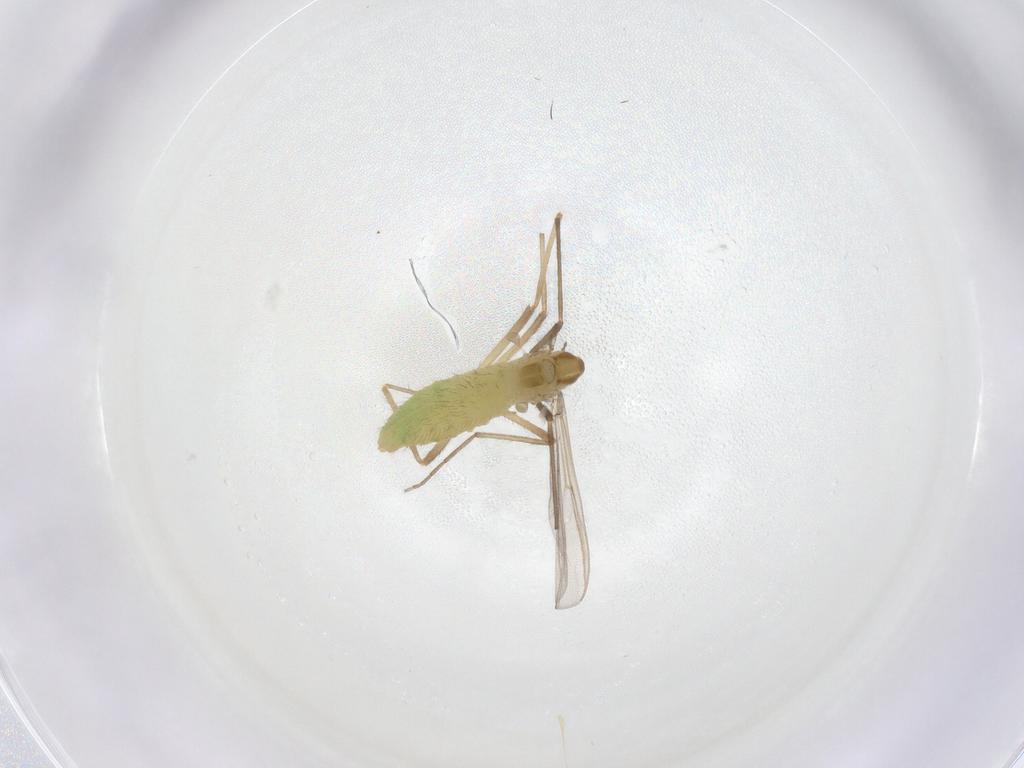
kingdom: Animalia
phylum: Arthropoda
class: Insecta
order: Diptera
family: Chironomidae
